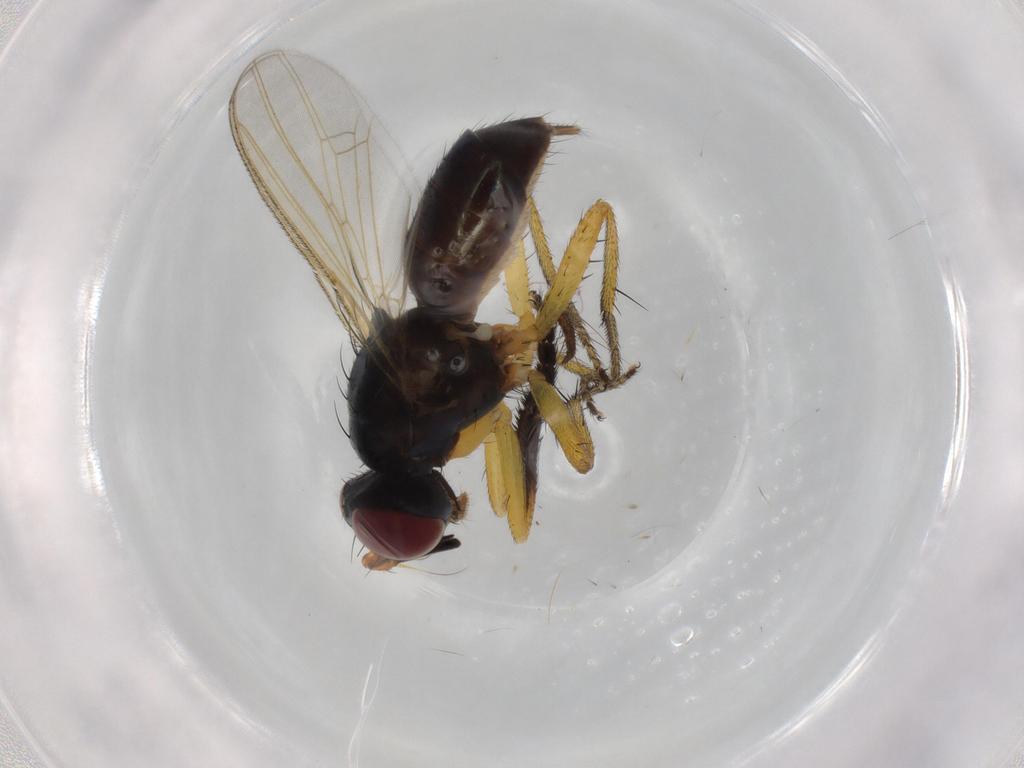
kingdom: Animalia
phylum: Arthropoda
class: Insecta
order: Diptera
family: Muscidae
